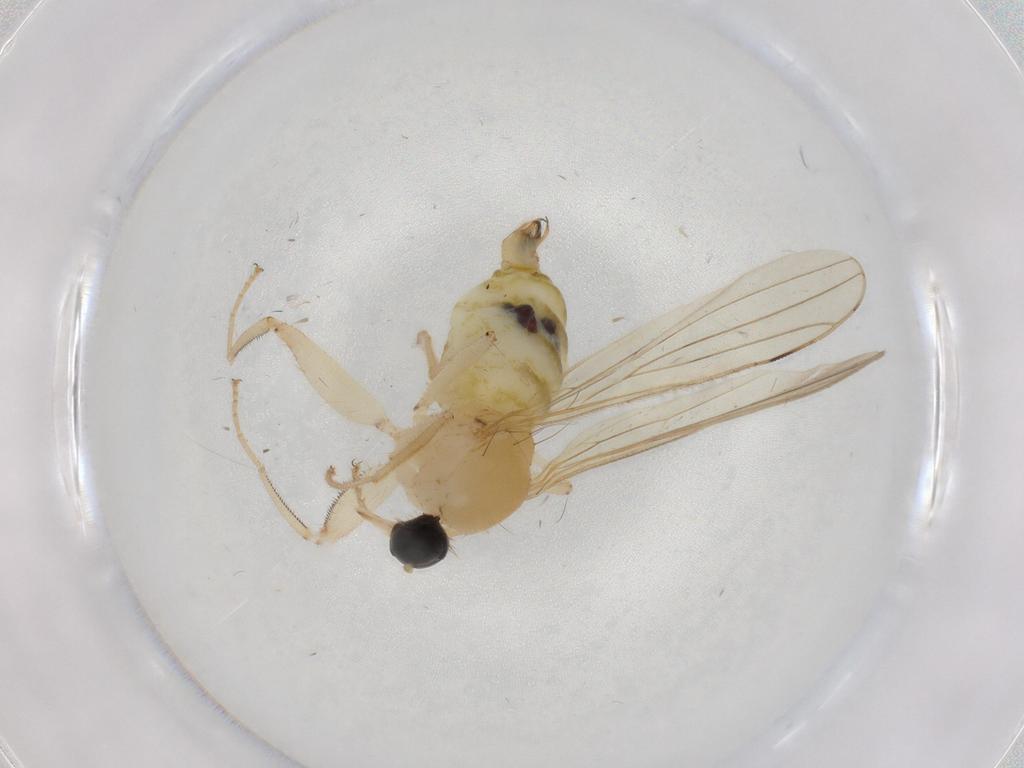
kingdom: Animalia
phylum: Arthropoda
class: Insecta
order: Diptera
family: Hybotidae
